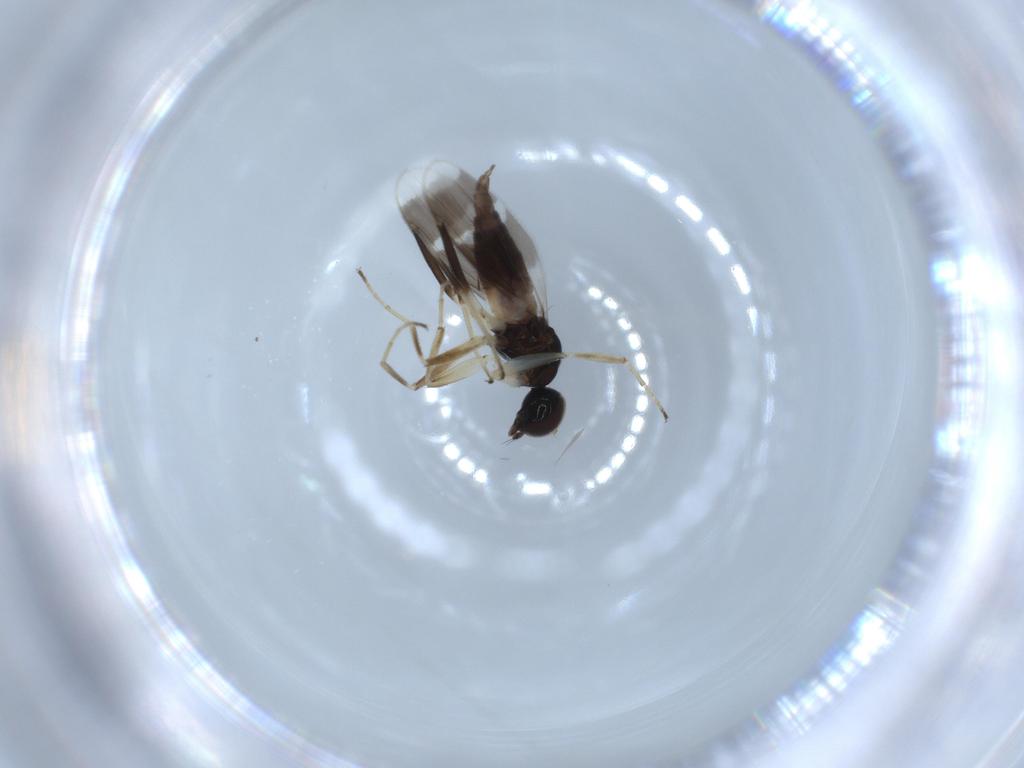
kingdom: Animalia
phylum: Arthropoda
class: Insecta
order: Diptera
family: Hybotidae
